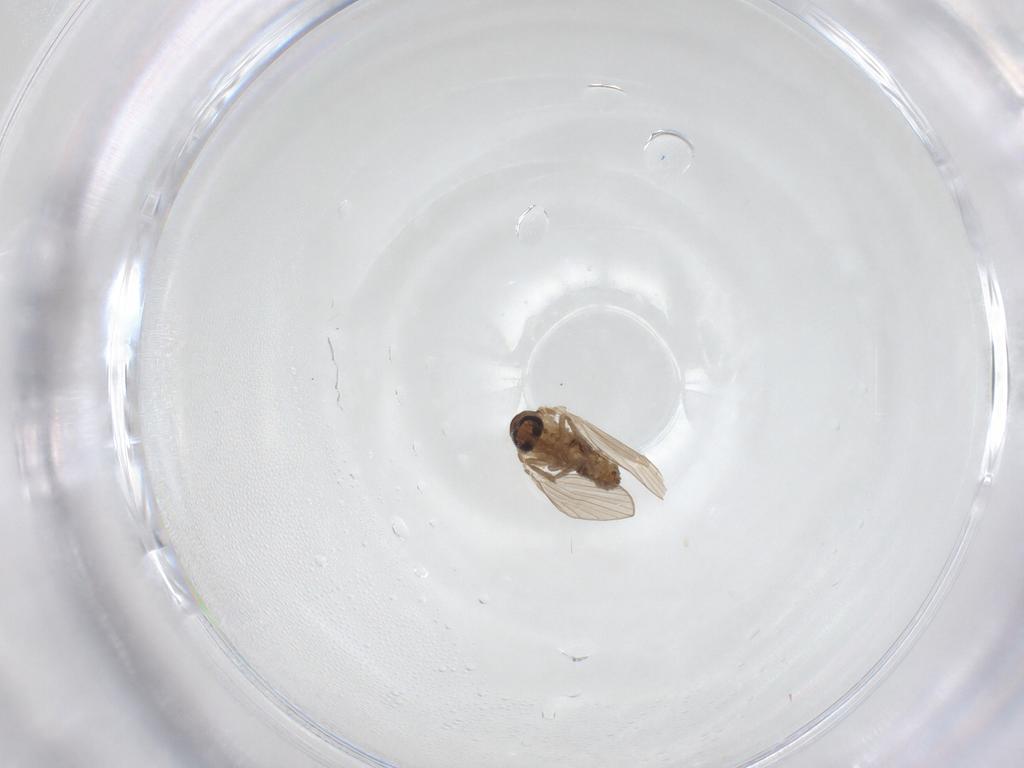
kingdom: Animalia
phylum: Arthropoda
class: Insecta
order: Diptera
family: Psychodidae
